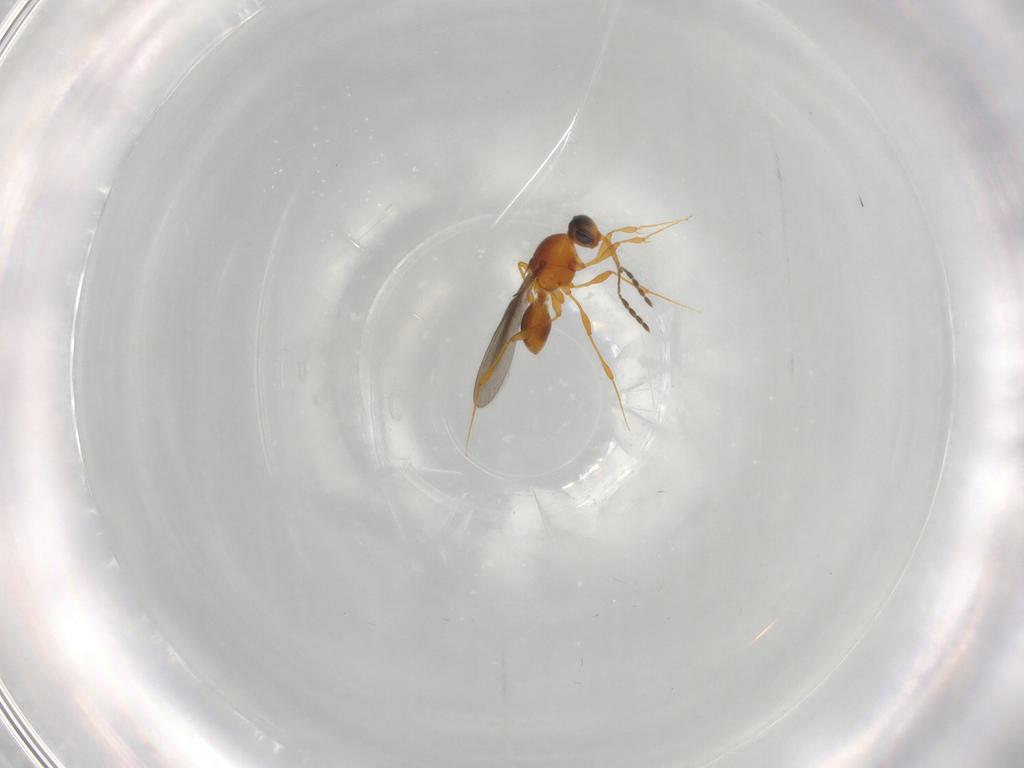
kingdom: Animalia
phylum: Arthropoda
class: Insecta
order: Hymenoptera
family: Platygastridae
